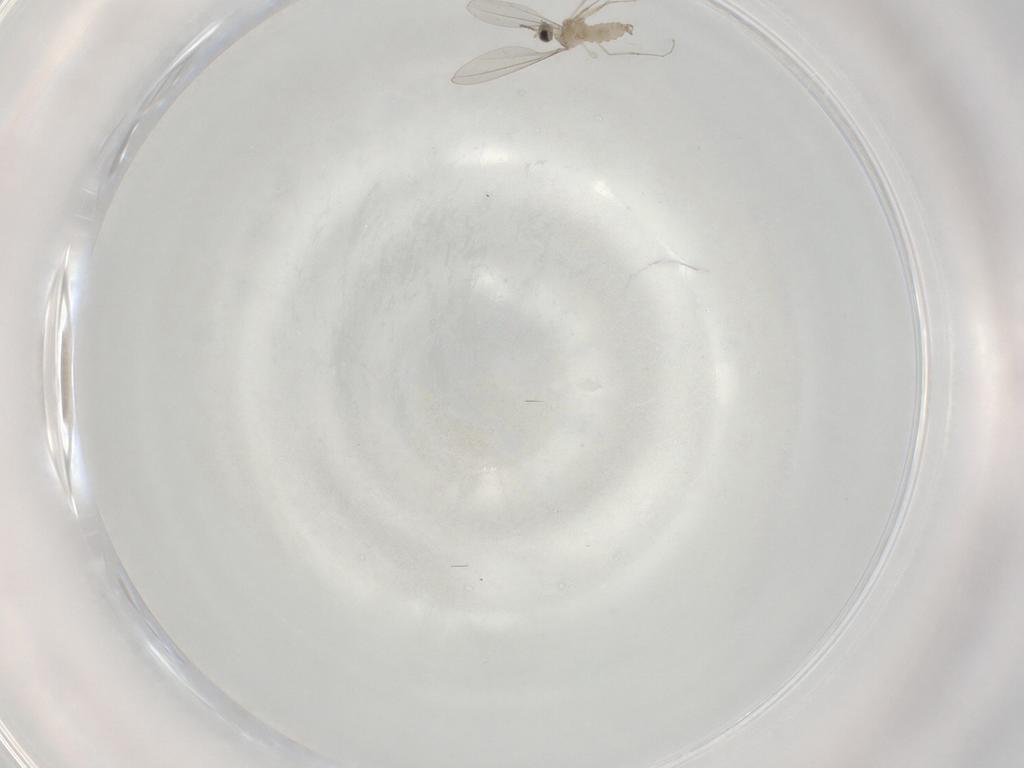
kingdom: Animalia
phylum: Arthropoda
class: Insecta
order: Diptera
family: Cecidomyiidae
